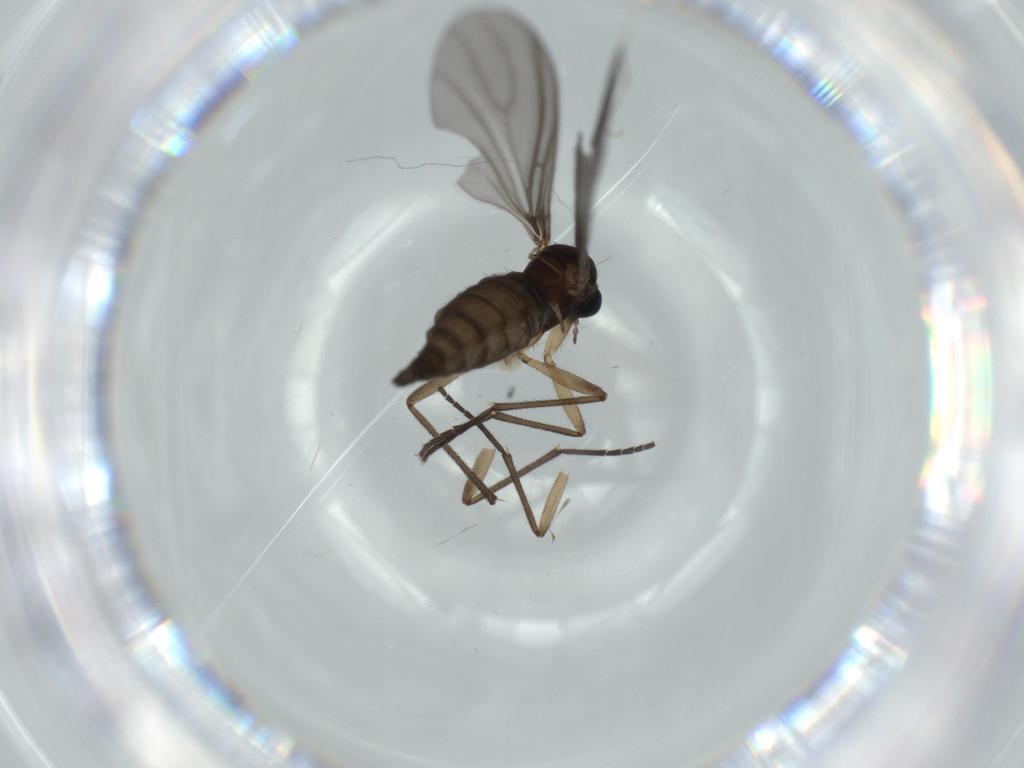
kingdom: Animalia
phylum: Arthropoda
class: Insecta
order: Diptera
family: Sciaridae
